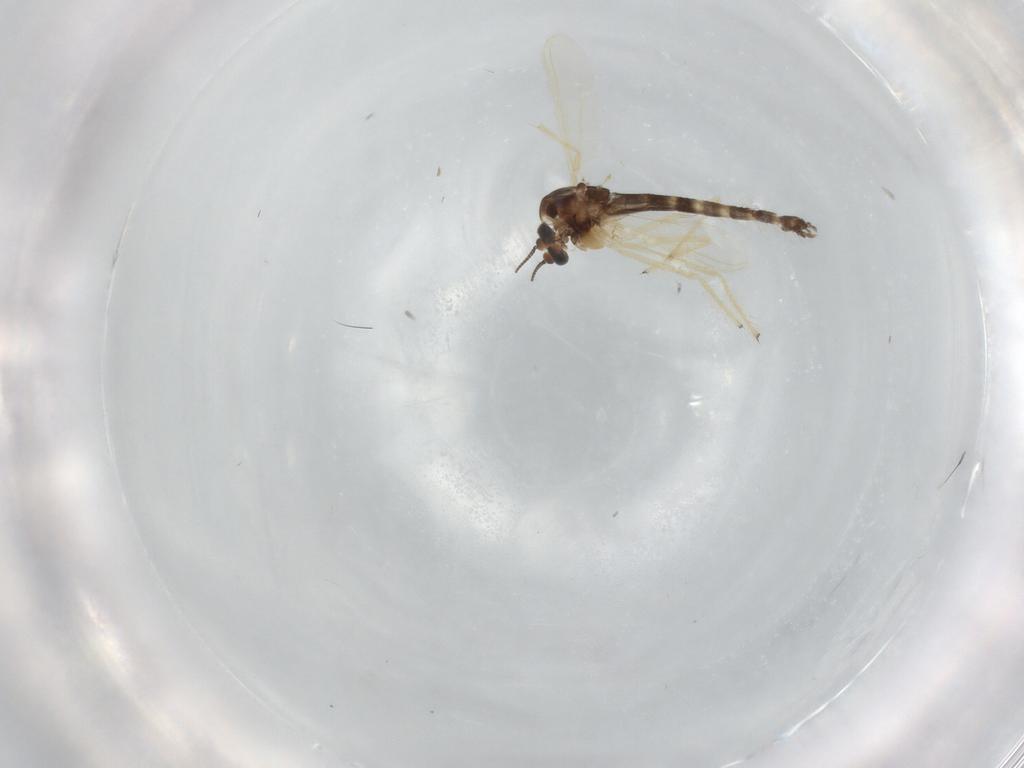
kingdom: Animalia
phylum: Arthropoda
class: Insecta
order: Diptera
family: Chironomidae
